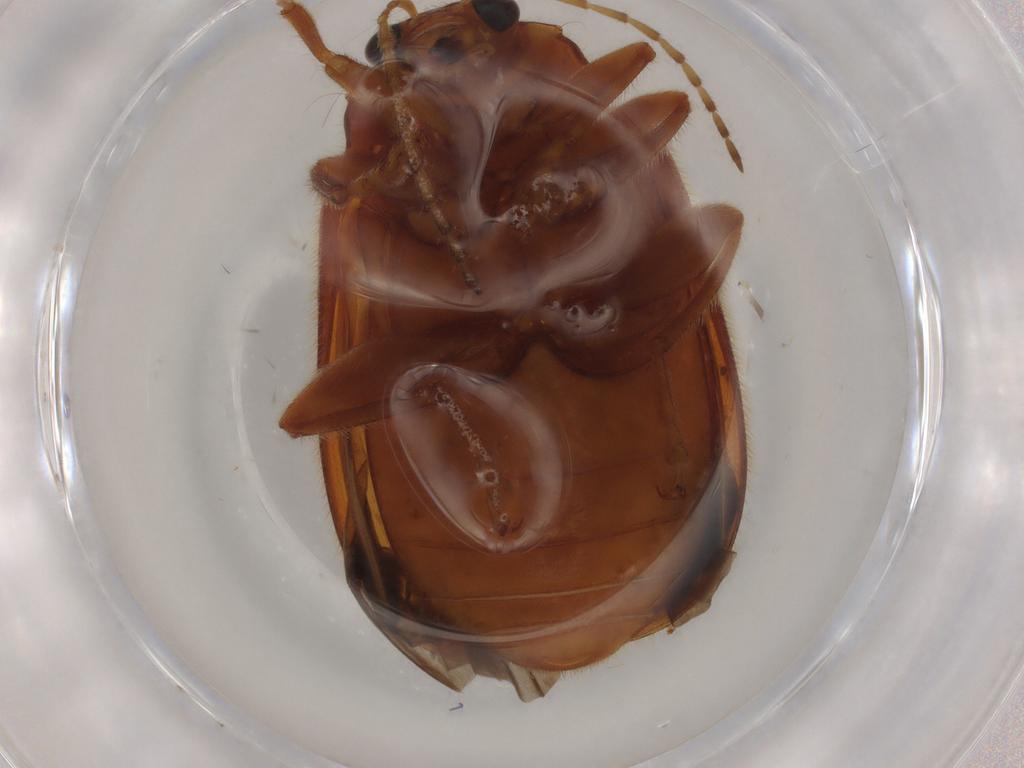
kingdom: Animalia
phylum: Arthropoda
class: Insecta
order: Coleoptera
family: Chrysomelidae
